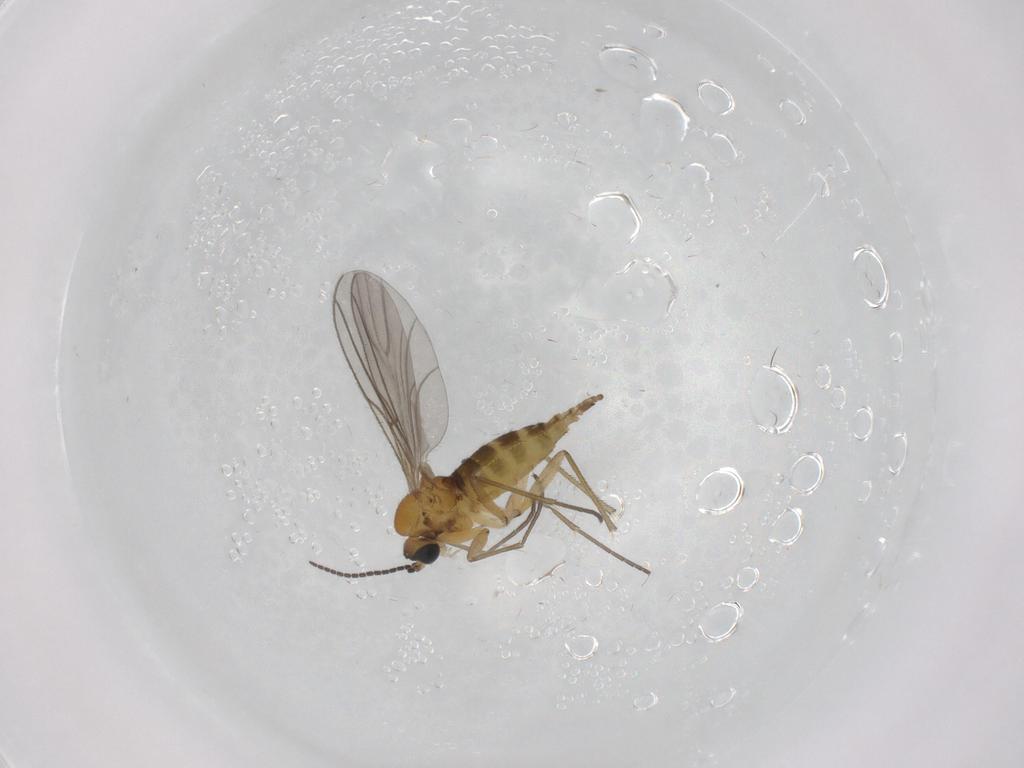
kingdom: Animalia
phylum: Arthropoda
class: Insecta
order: Diptera
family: Sciaridae
